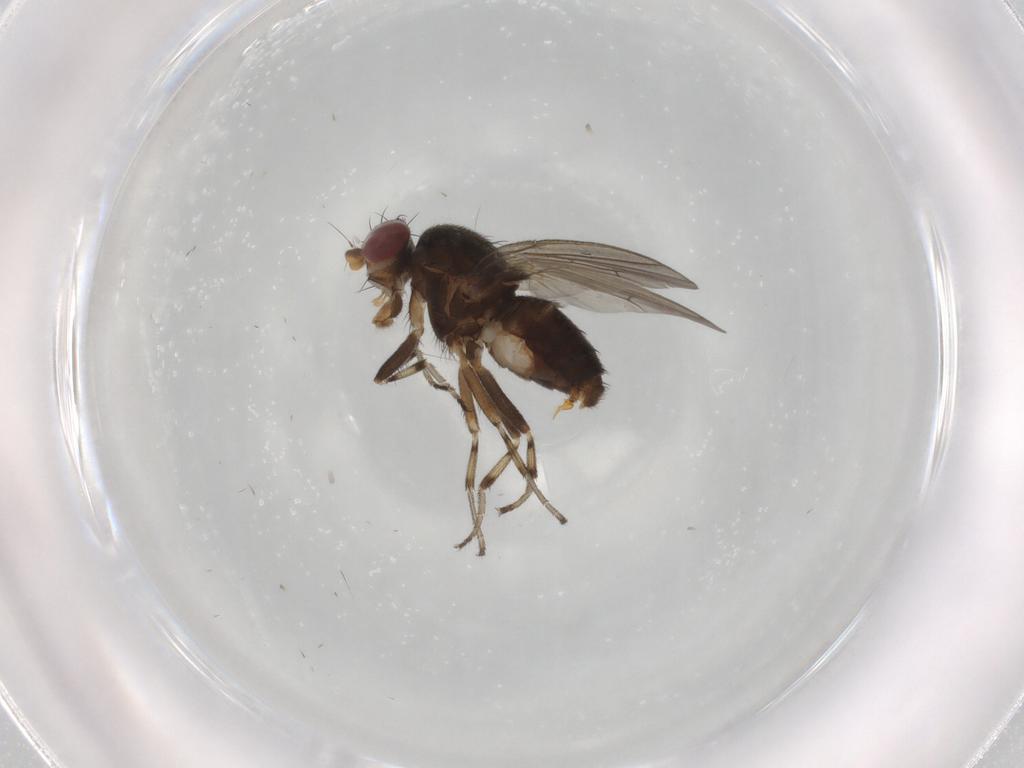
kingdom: Animalia
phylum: Arthropoda
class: Insecta
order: Diptera
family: Heleomyzidae
